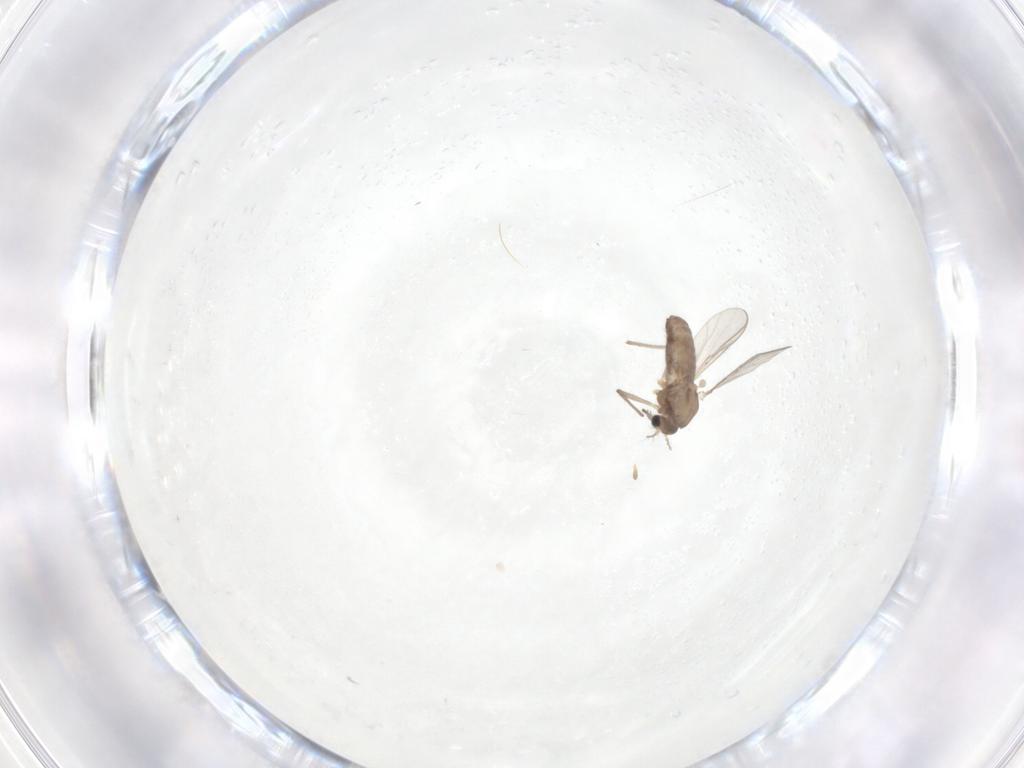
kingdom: Animalia
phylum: Arthropoda
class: Insecta
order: Diptera
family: Chironomidae
